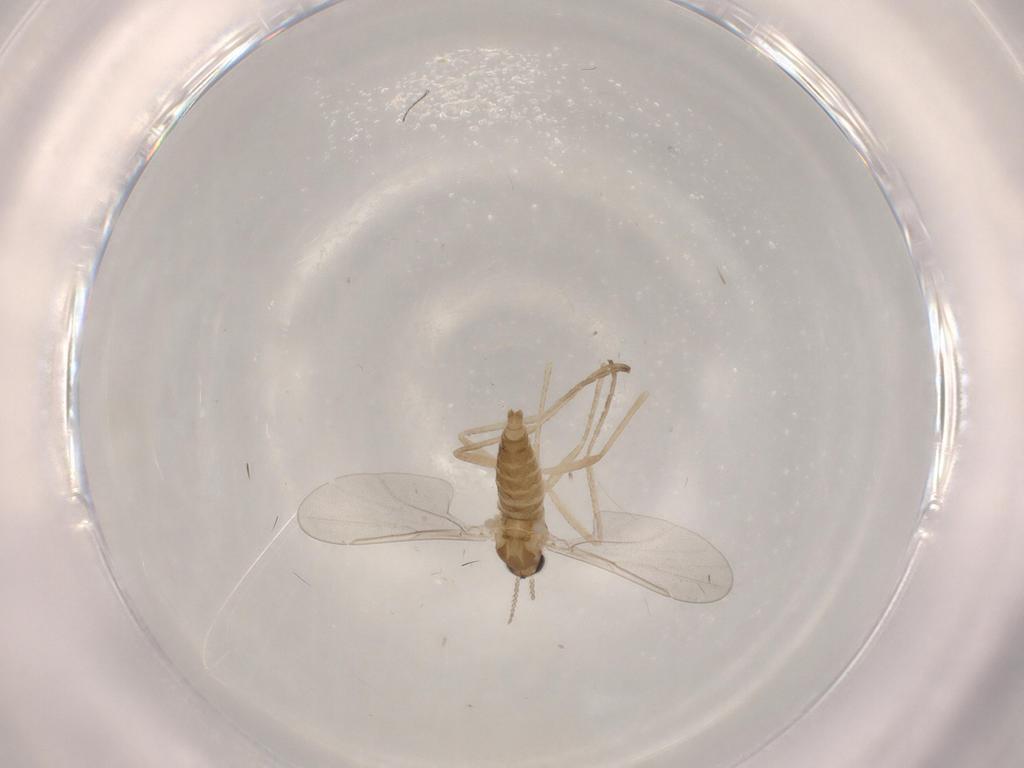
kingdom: Animalia
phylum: Arthropoda
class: Insecta
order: Diptera
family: Cecidomyiidae
